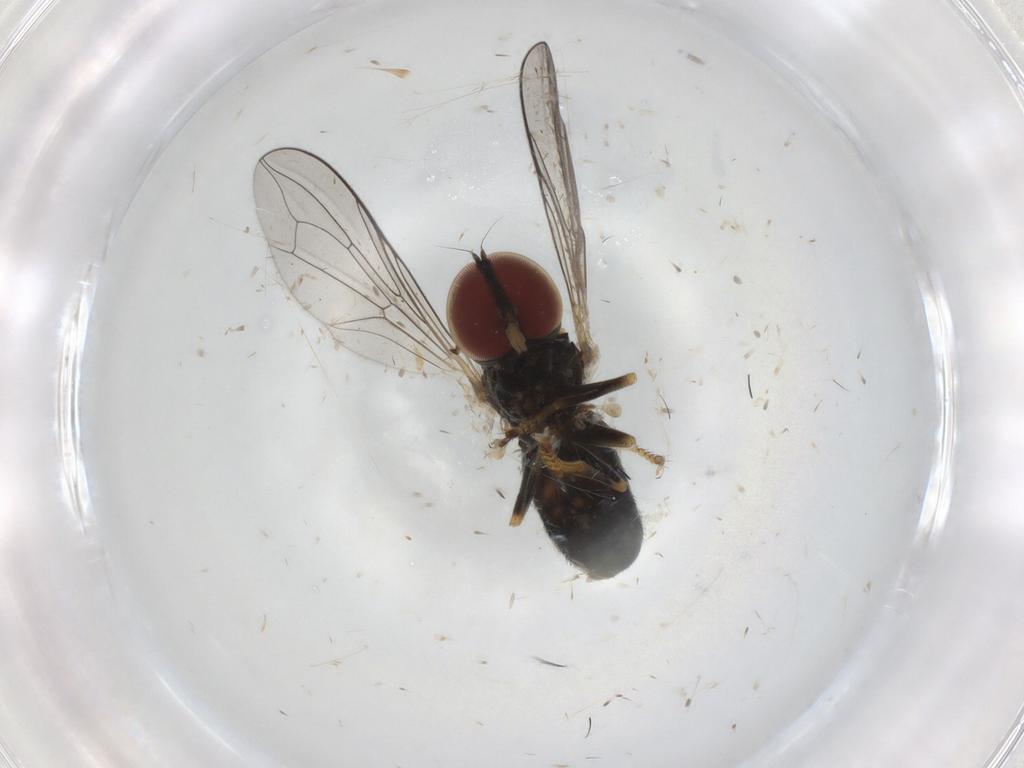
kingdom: Animalia
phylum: Arthropoda
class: Insecta
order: Diptera
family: Pipunculidae
